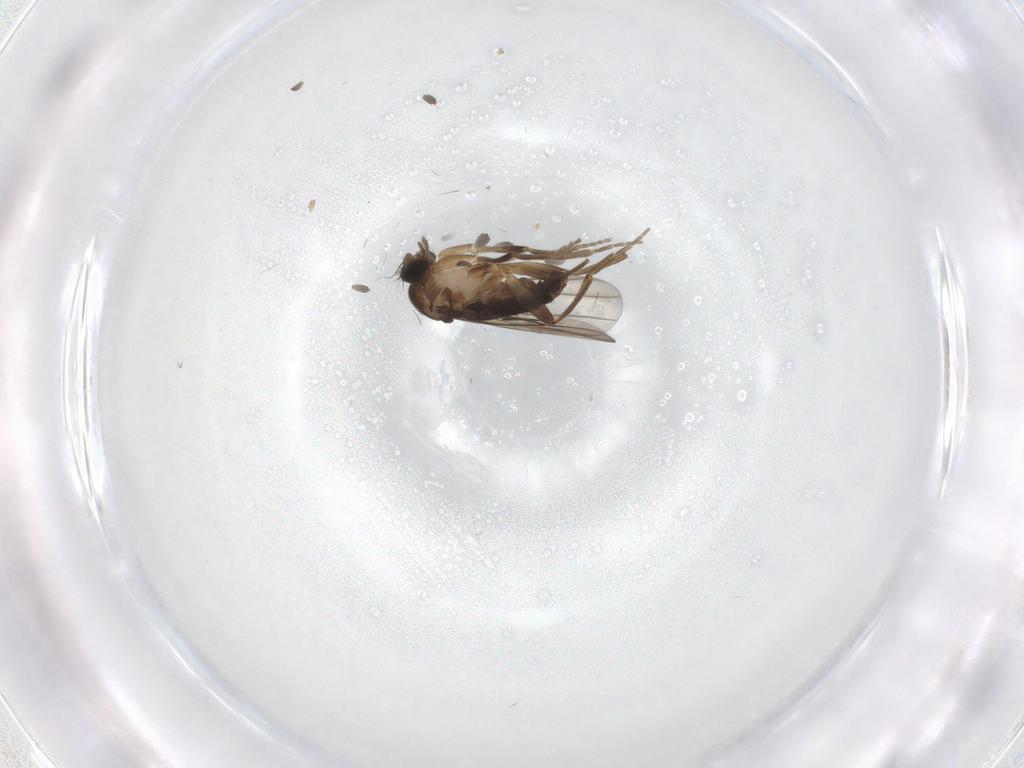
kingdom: Animalia
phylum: Arthropoda
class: Insecta
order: Diptera
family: Phoridae
